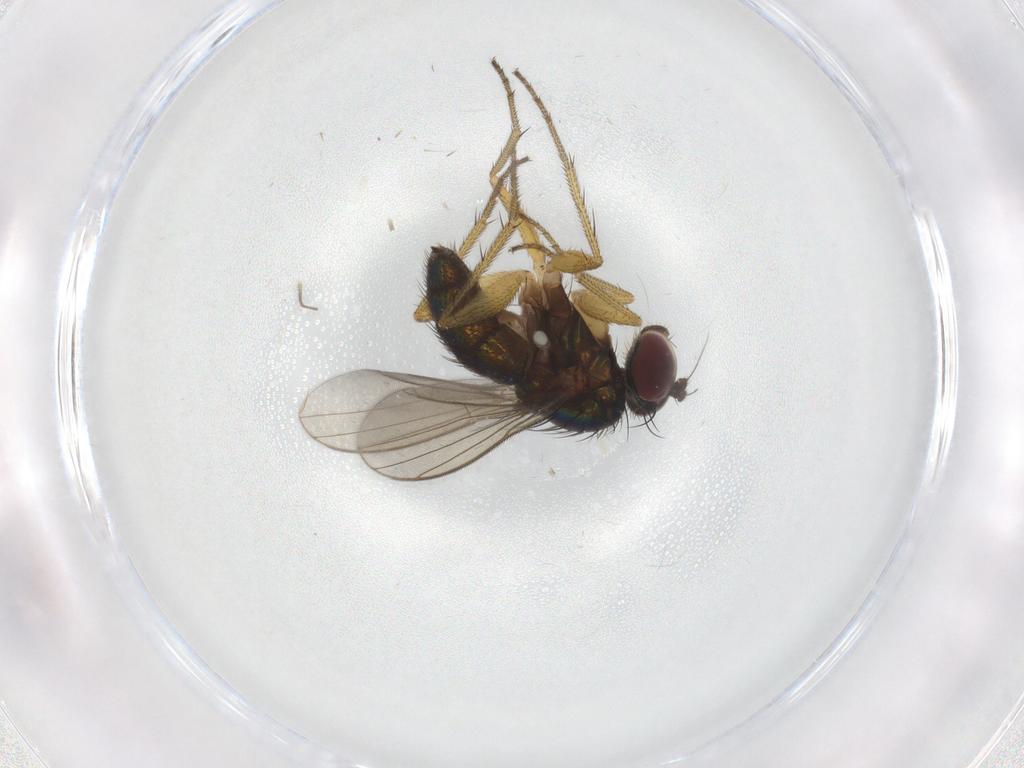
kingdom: Animalia
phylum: Arthropoda
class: Insecta
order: Diptera
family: Dolichopodidae
